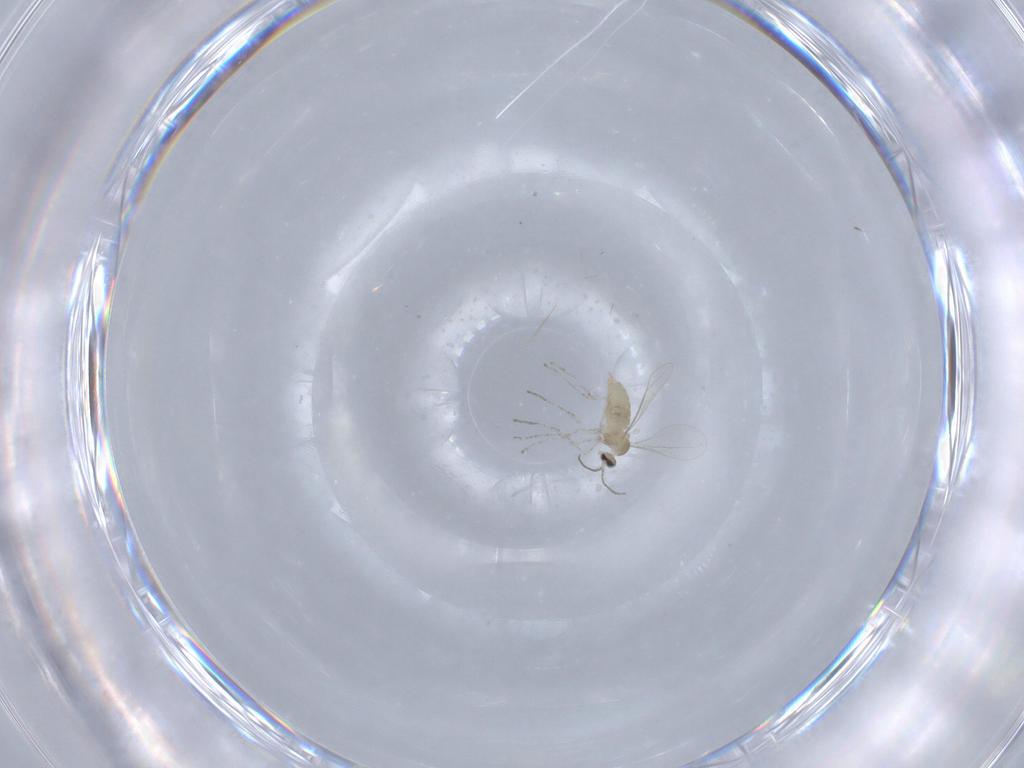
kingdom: Animalia
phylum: Arthropoda
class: Insecta
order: Diptera
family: Cecidomyiidae
